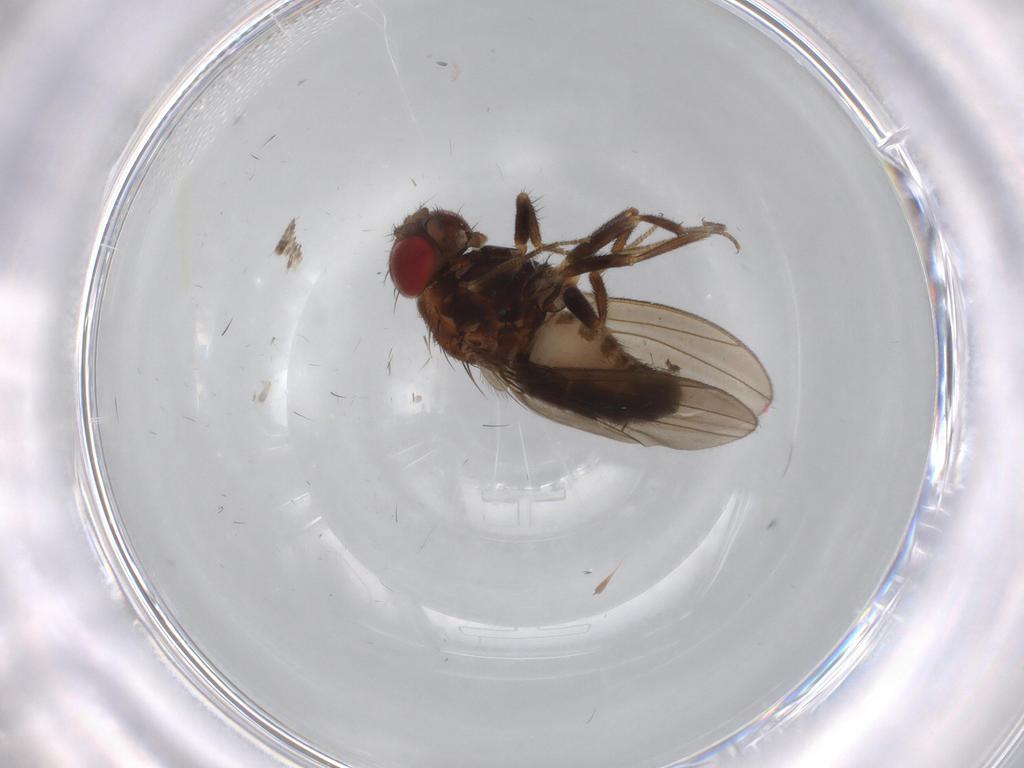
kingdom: Animalia
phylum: Arthropoda
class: Insecta
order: Diptera
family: Drosophilidae
